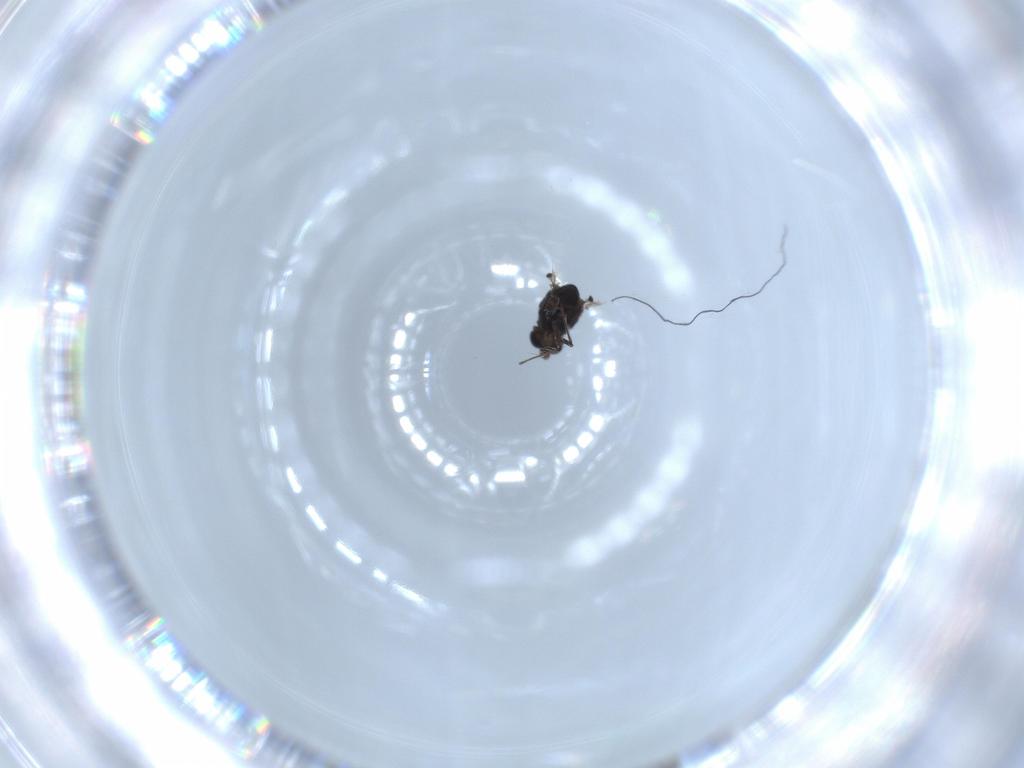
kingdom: Animalia
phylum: Arthropoda
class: Insecta
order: Diptera
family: Chironomidae
